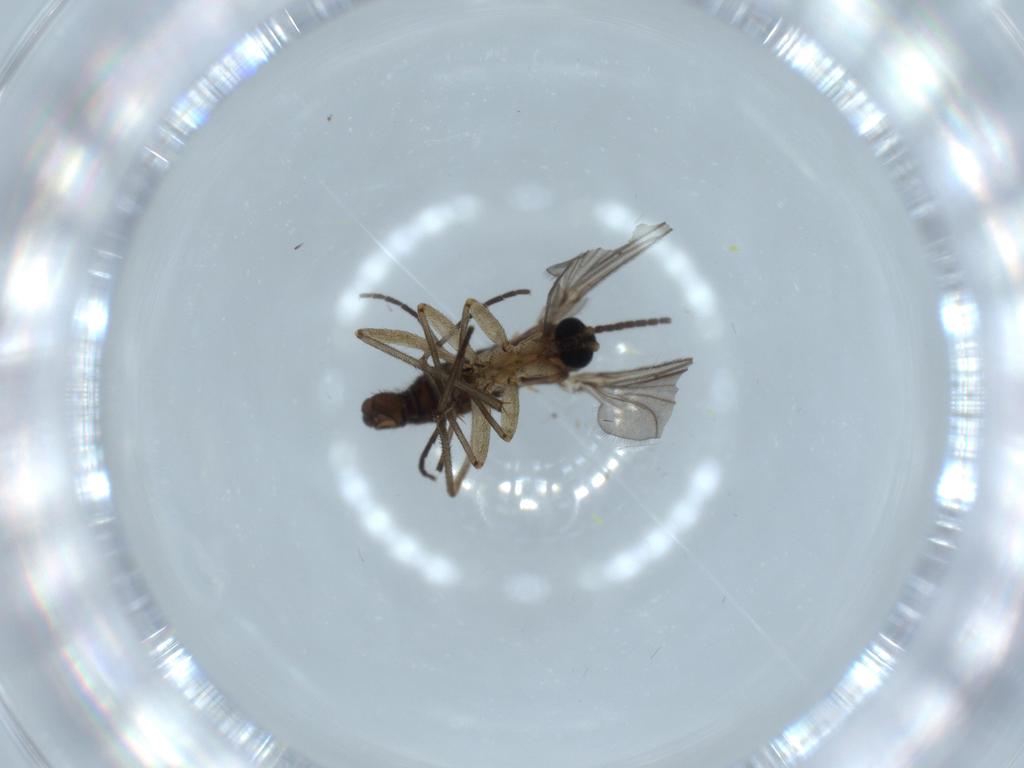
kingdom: Animalia
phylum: Arthropoda
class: Insecta
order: Diptera
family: Sciaridae
